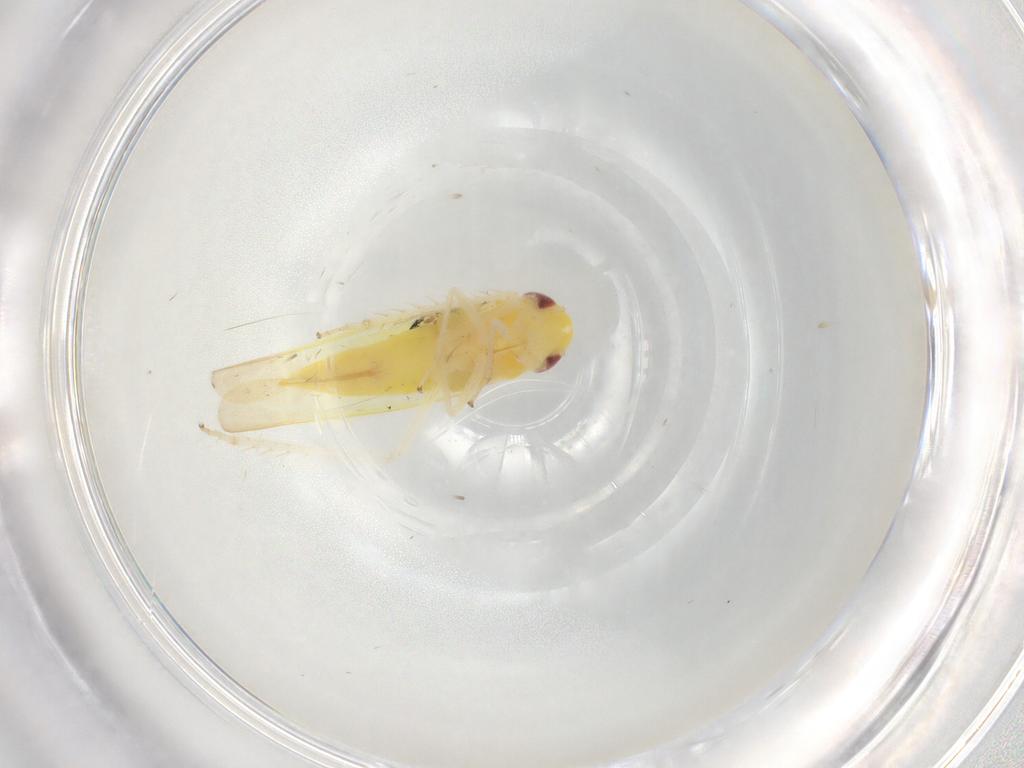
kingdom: Animalia
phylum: Arthropoda
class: Insecta
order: Hemiptera
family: Cicadellidae
